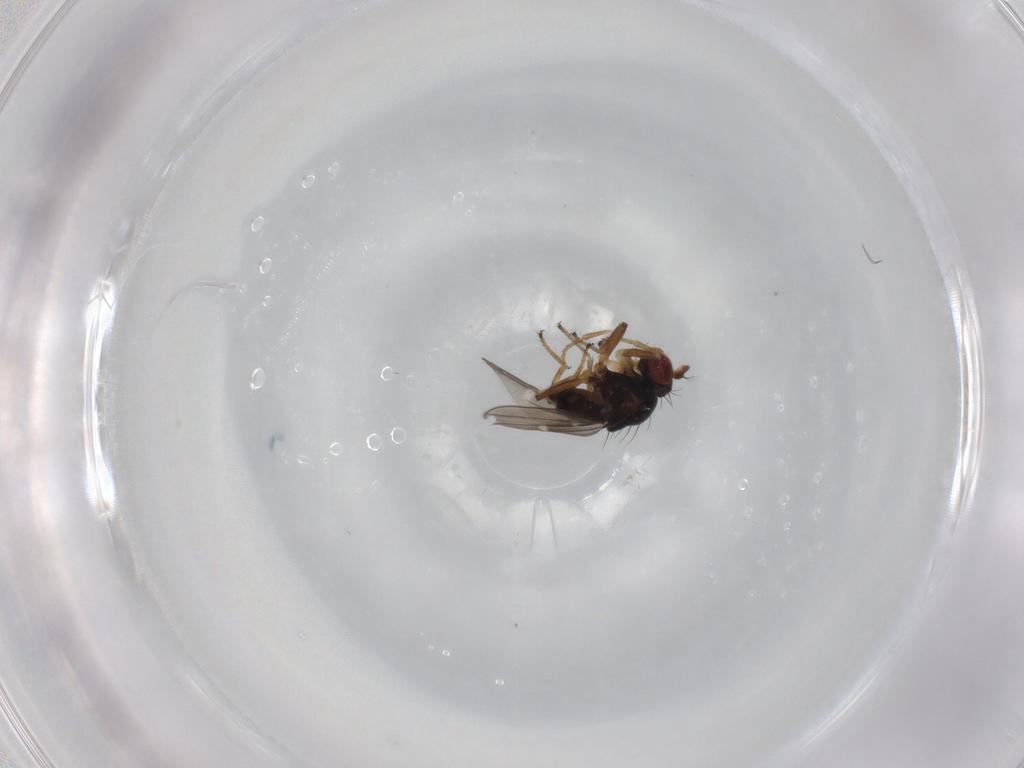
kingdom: Animalia
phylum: Arthropoda
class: Insecta
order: Diptera
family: Ephydridae
